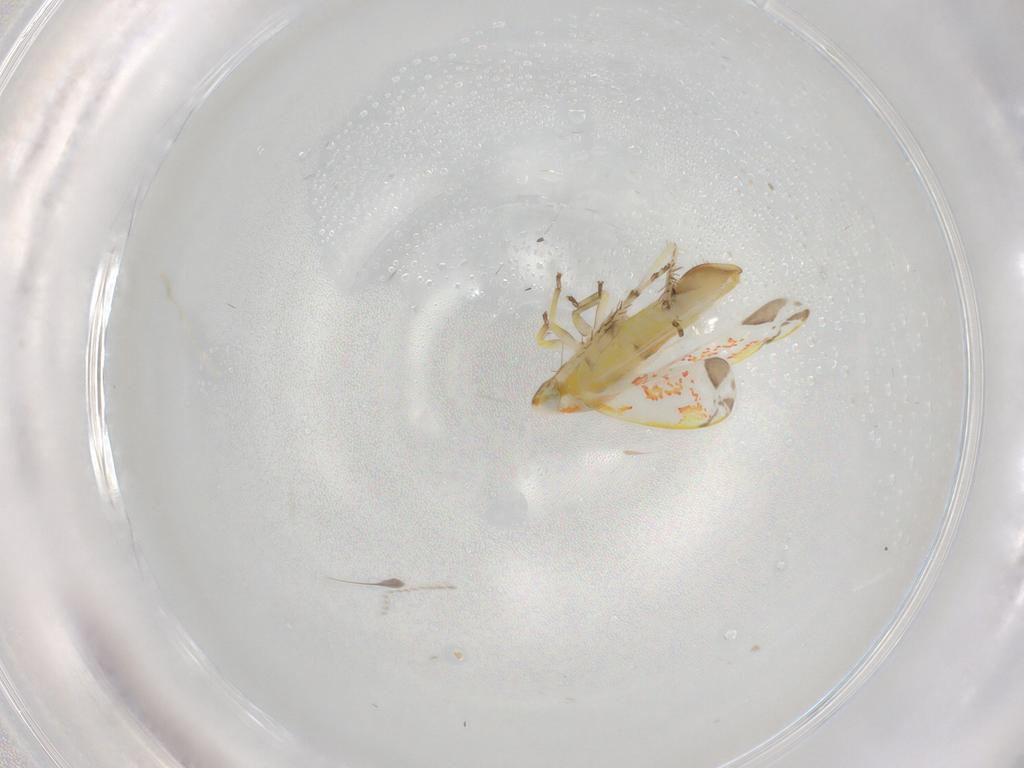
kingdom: Animalia
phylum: Arthropoda
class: Insecta
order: Hemiptera
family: Cicadellidae
